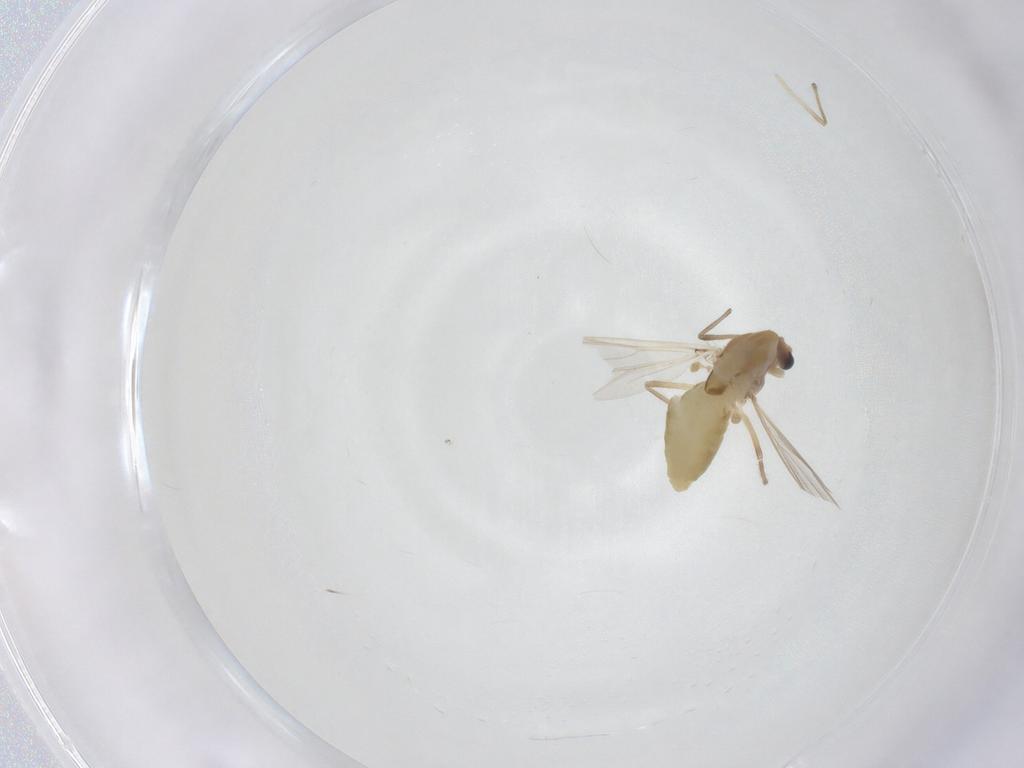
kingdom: Animalia
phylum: Arthropoda
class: Insecta
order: Diptera
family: Chironomidae
